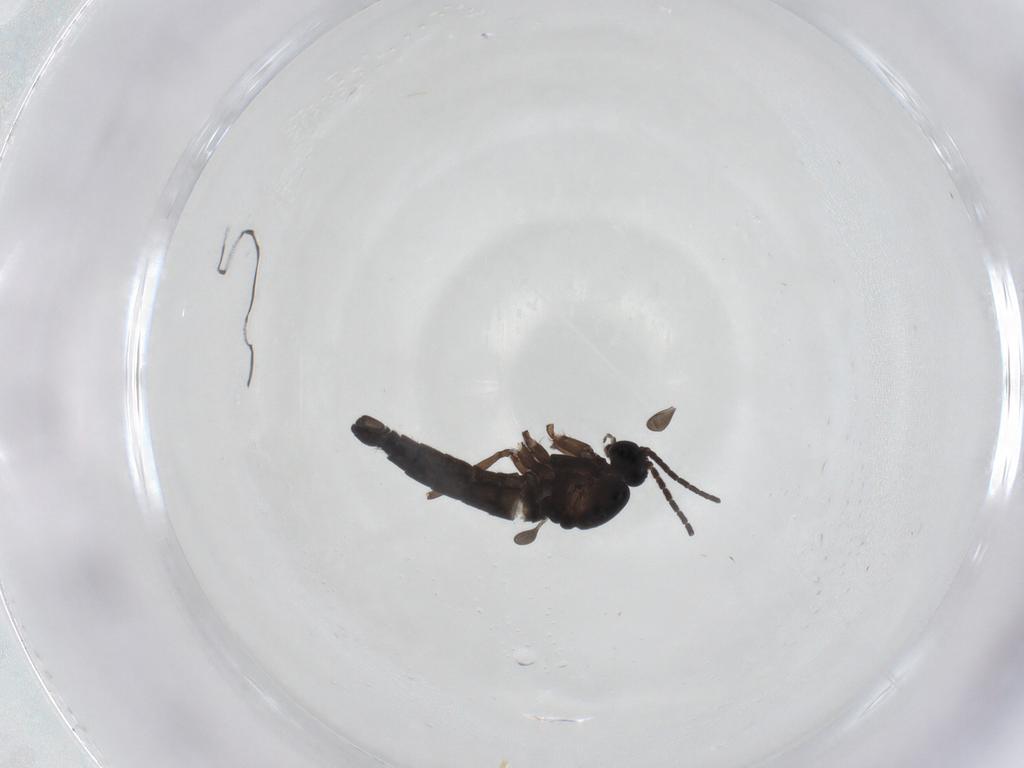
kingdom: Animalia
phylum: Arthropoda
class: Insecta
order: Diptera
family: Sciaridae
